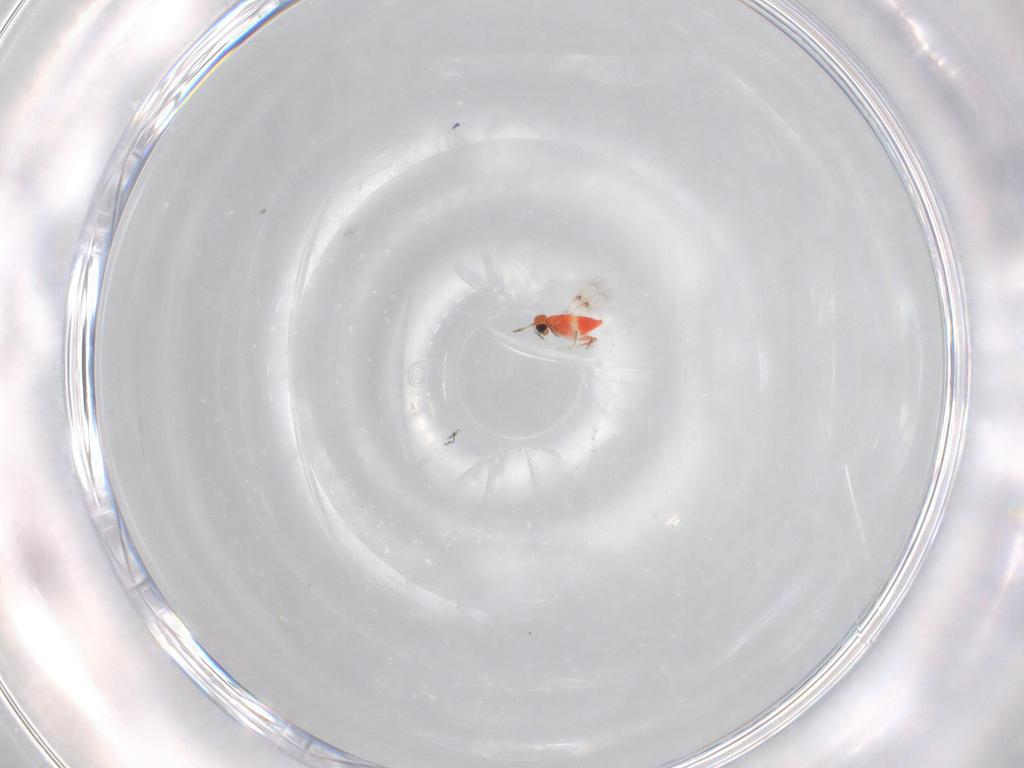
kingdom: Animalia
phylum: Arthropoda
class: Insecta
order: Hymenoptera
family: Trichogrammatidae
